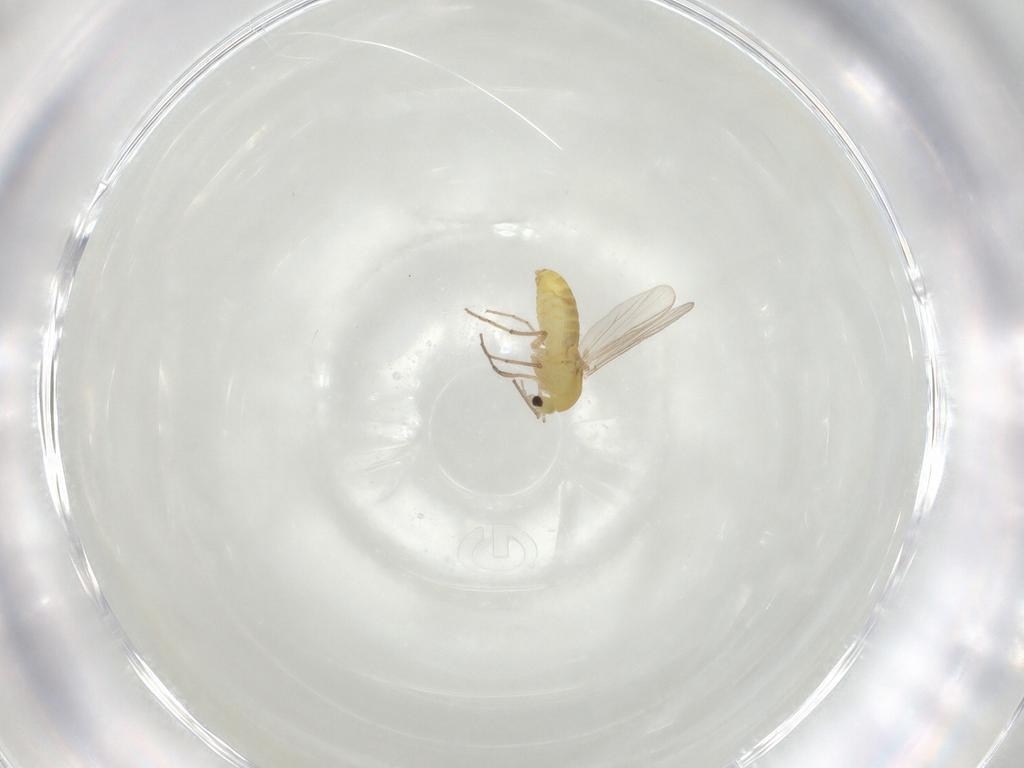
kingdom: Animalia
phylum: Arthropoda
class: Insecta
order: Diptera
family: Chironomidae
